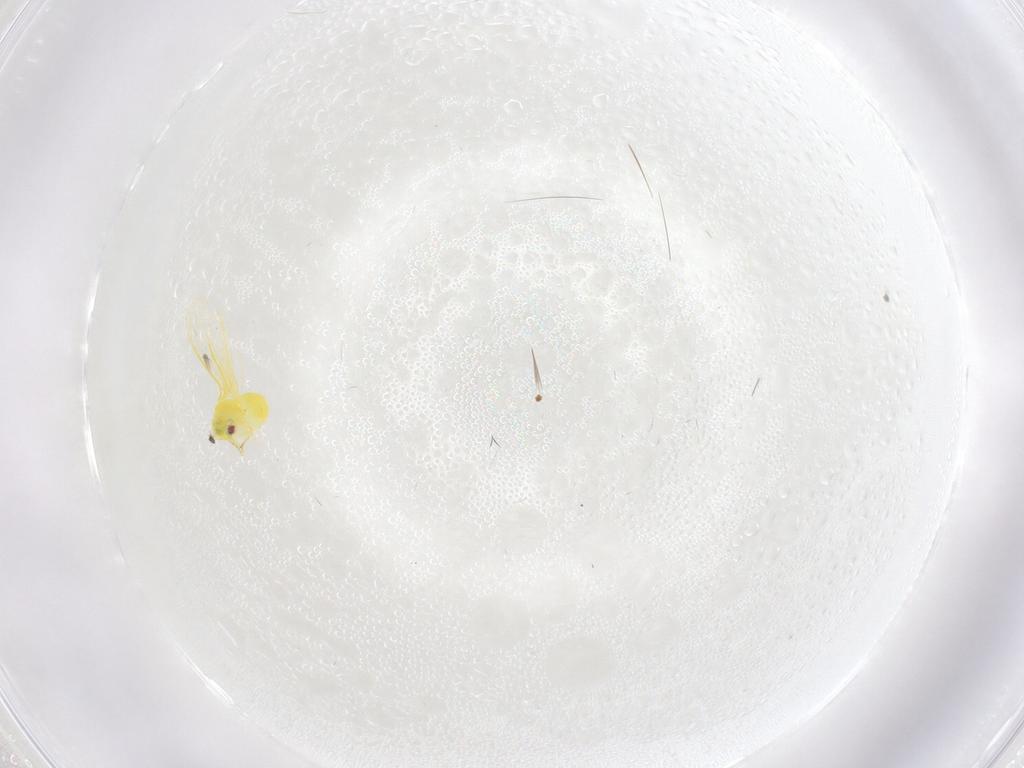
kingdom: Animalia
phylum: Arthropoda
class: Insecta
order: Hemiptera
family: Aleyrodidae
